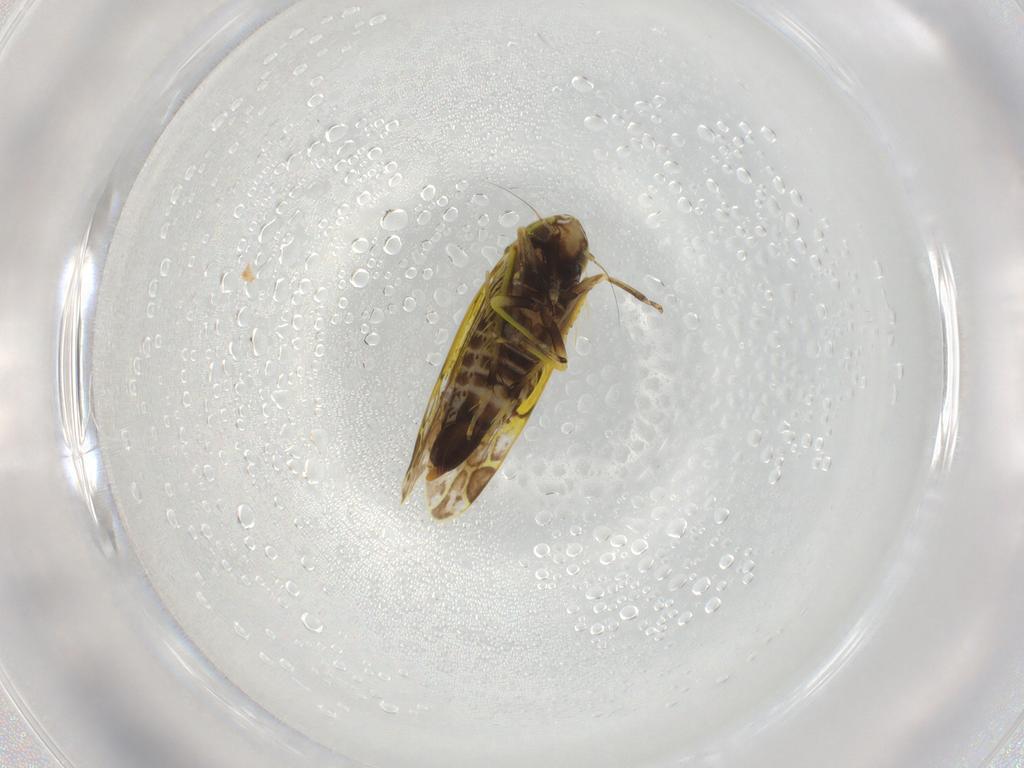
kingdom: Animalia
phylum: Arthropoda
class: Insecta
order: Hemiptera
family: Cicadellidae
